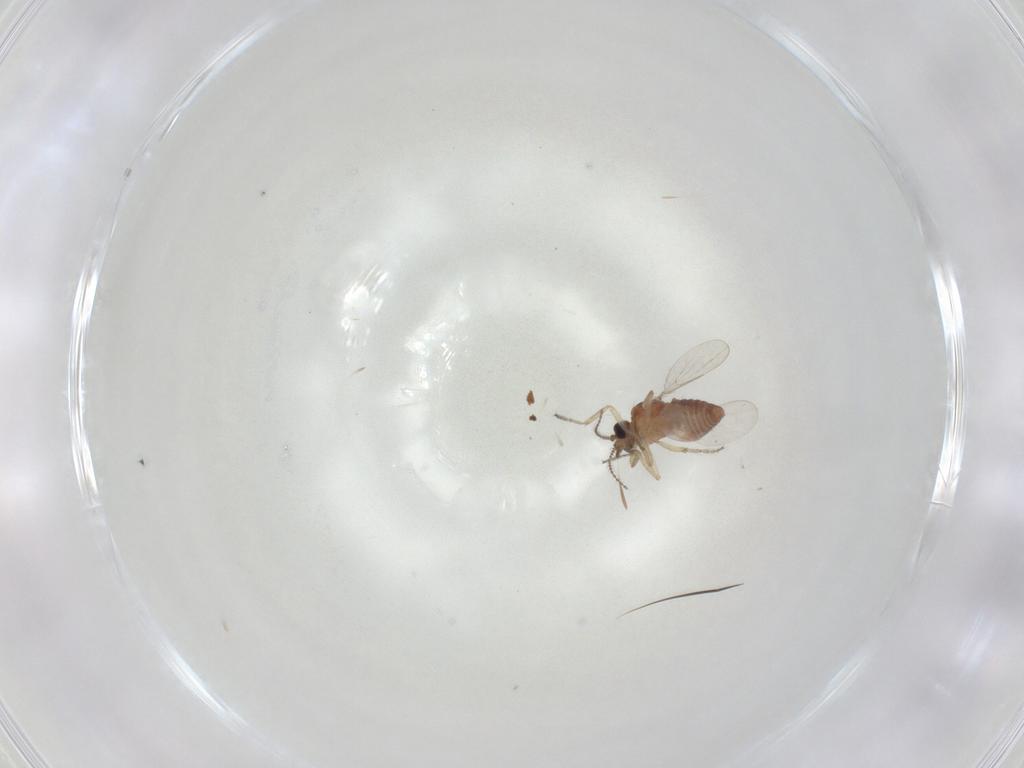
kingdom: Animalia
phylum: Arthropoda
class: Insecta
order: Diptera
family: Ceratopogonidae
